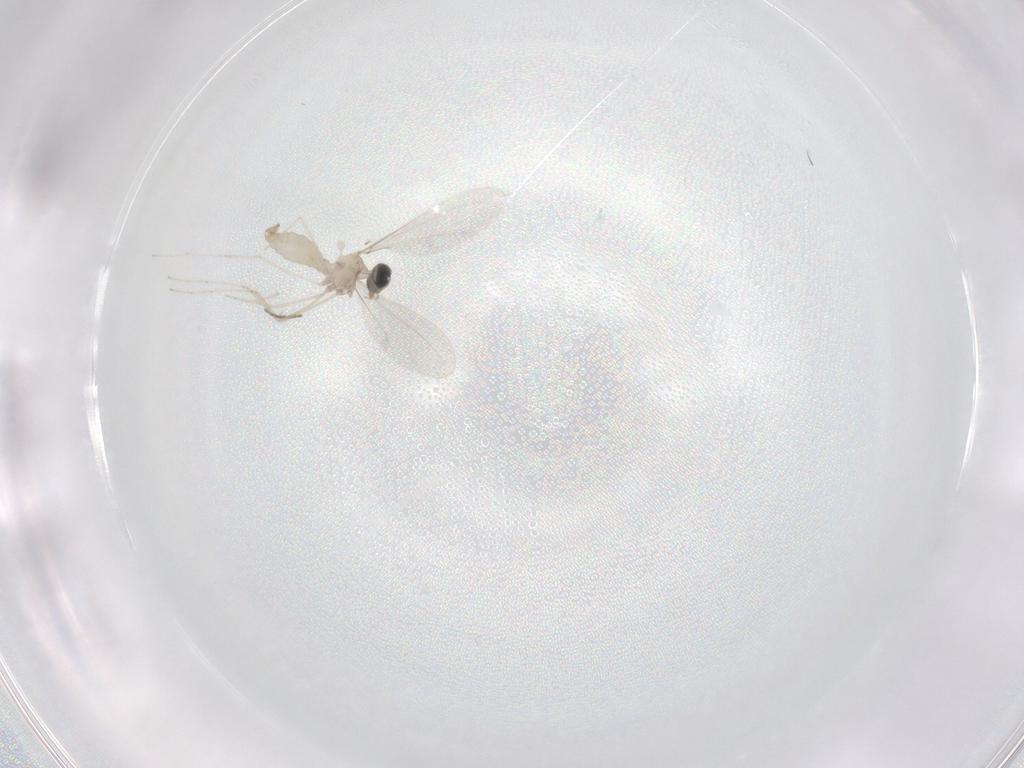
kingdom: Animalia
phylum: Arthropoda
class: Insecta
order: Diptera
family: Cecidomyiidae
